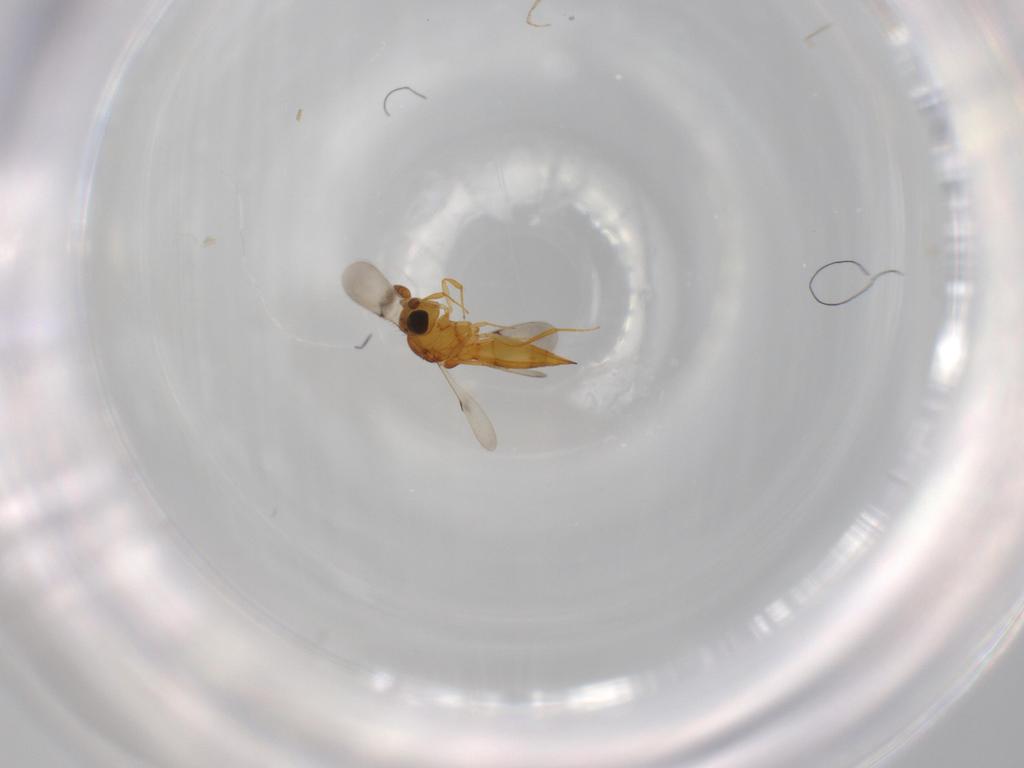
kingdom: Animalia
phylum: Arthropoda
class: Insecta
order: Hymenoptera
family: Scelionidae
